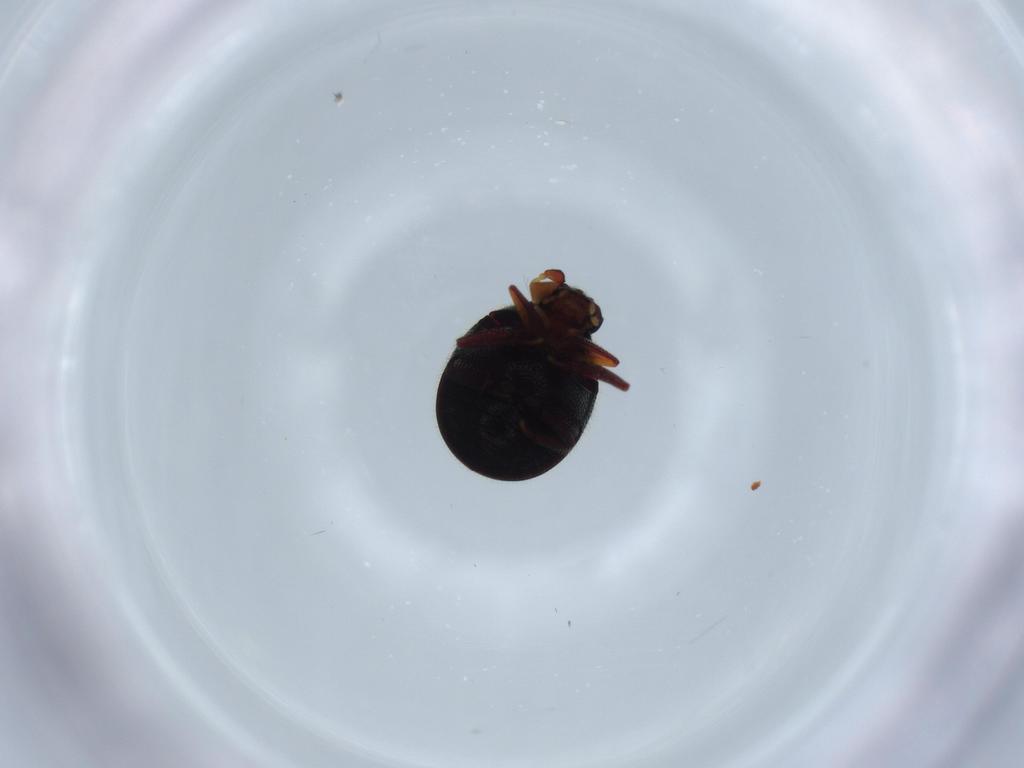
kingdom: Animalia
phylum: Arthropoda
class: Insecta
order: Coleoptera
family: Ptinidae
